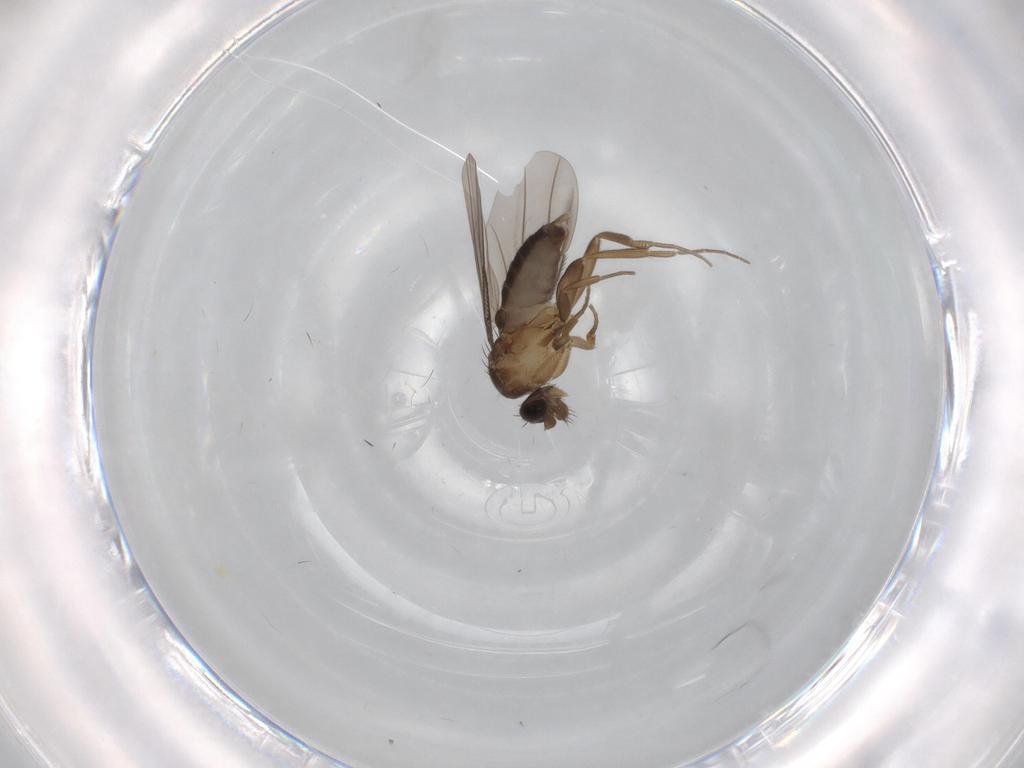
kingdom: Animalia
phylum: Arthropoda
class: Insecta
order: Diptera
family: Phoridae
